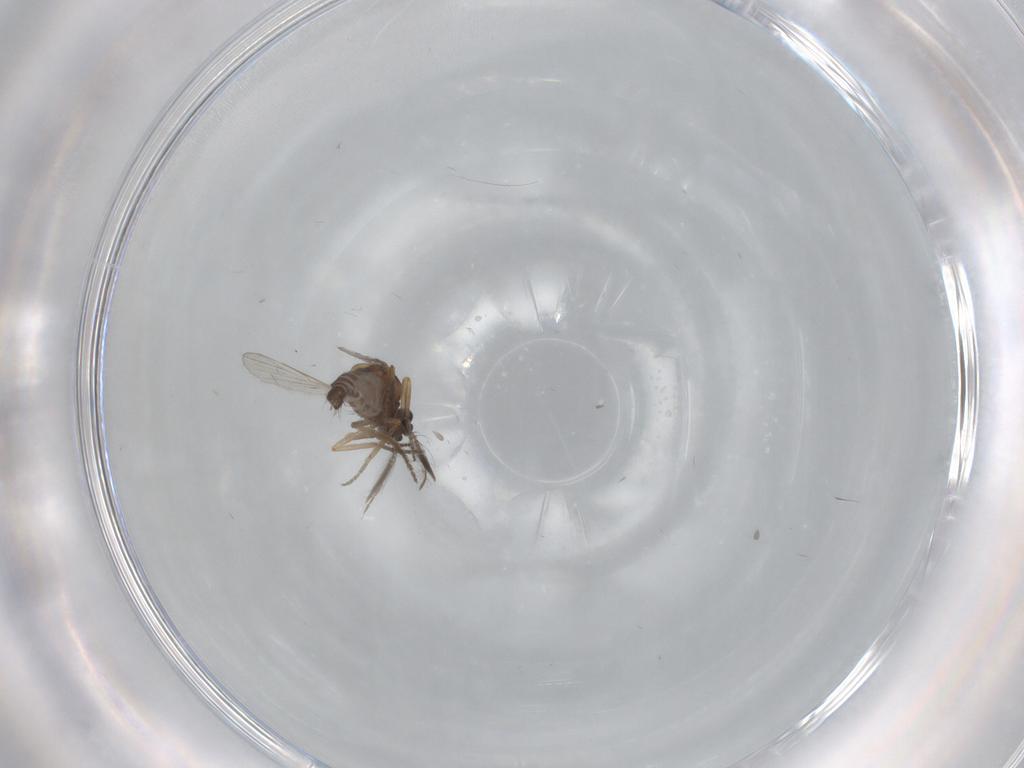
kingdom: Animalia
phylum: Arthropoda
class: Insecta
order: Diptera
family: Ceratopogonidae
